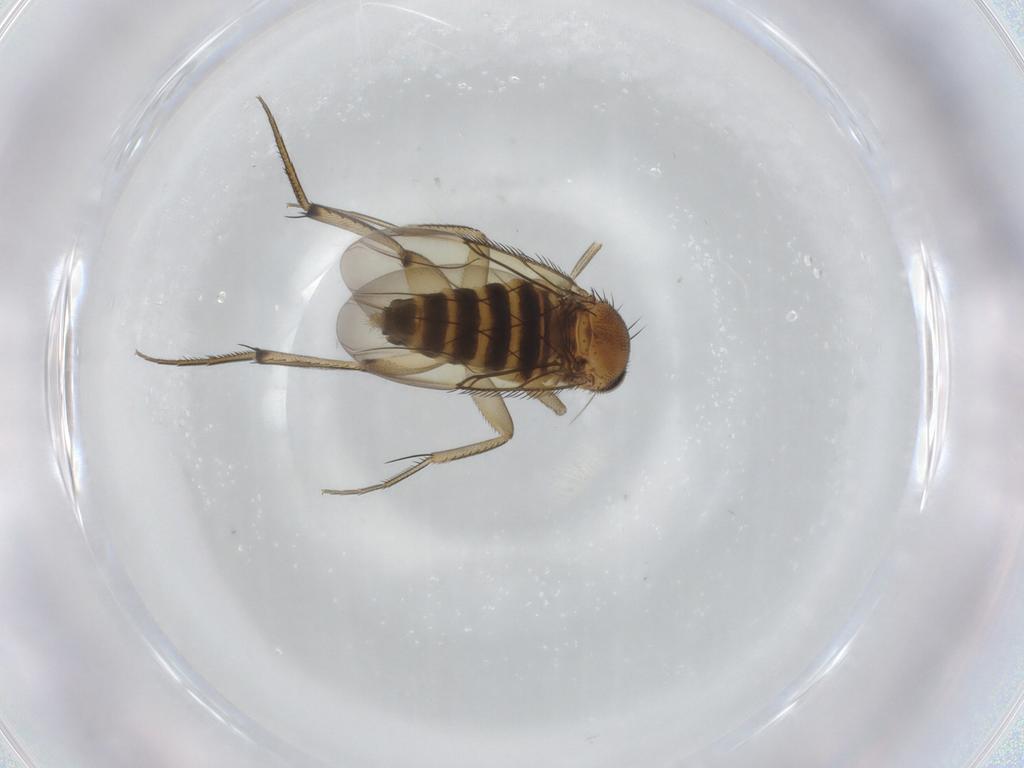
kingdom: Animalia
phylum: Arthropoda
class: Insecta
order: Diptera
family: Phoridae
